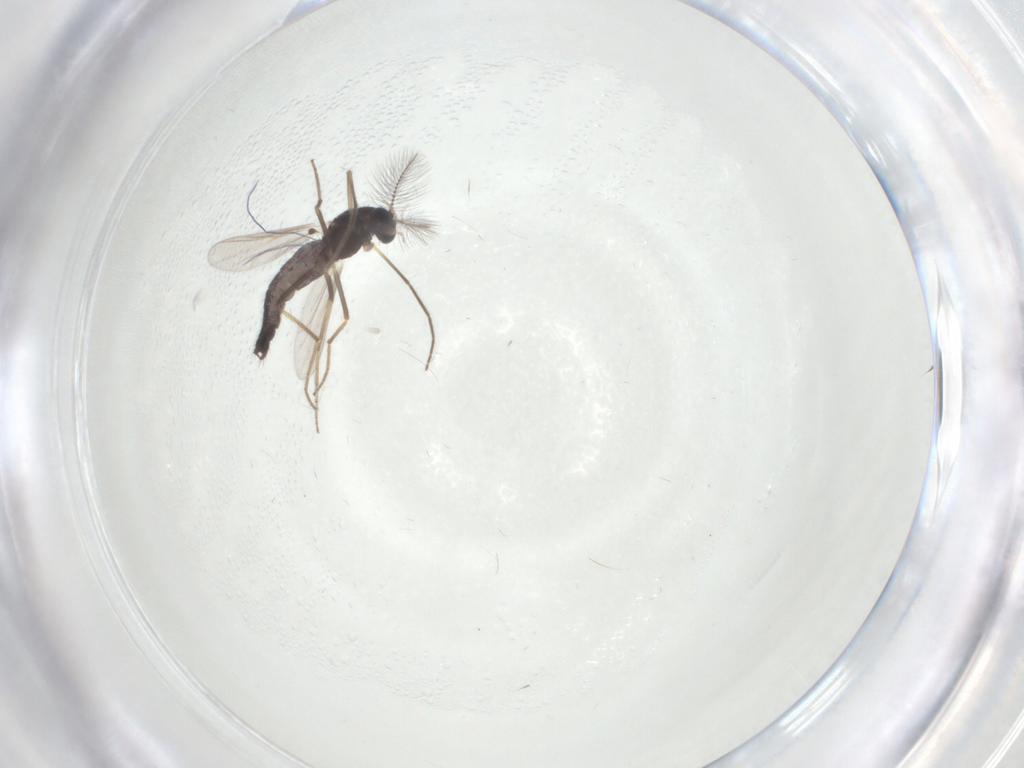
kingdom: Animalia
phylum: Arthropoda
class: Insecta
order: Diptera
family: Chironomidae
